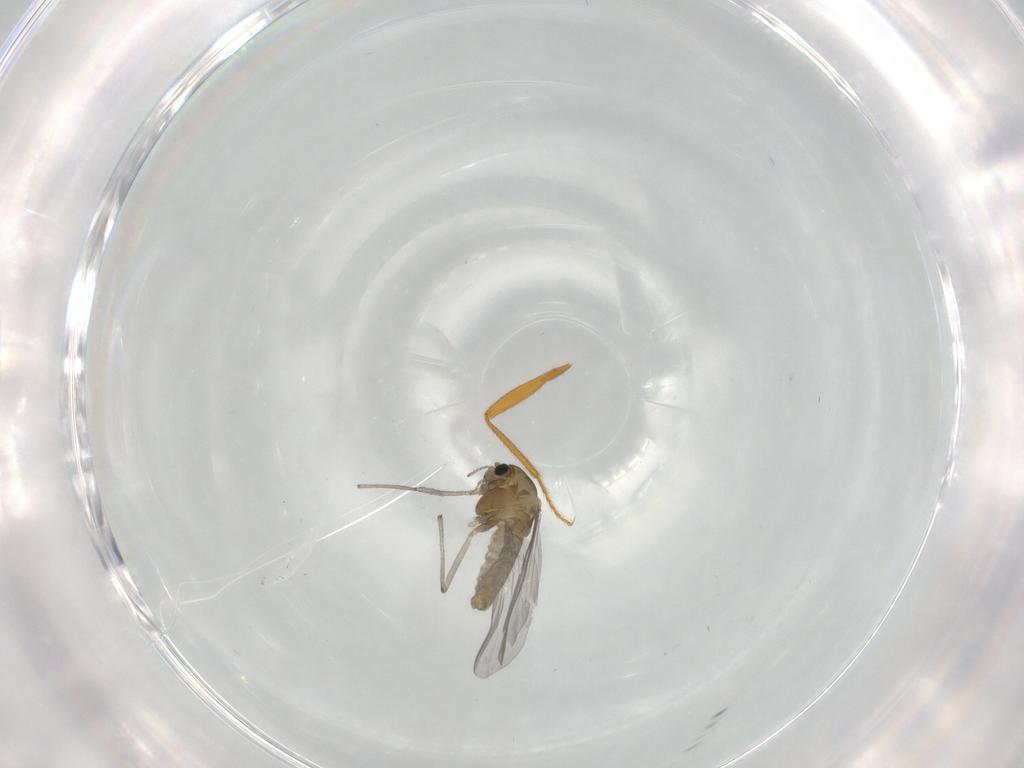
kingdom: Animalia
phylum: Arthropoda
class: Insecta
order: Diptera
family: Chironomidae
